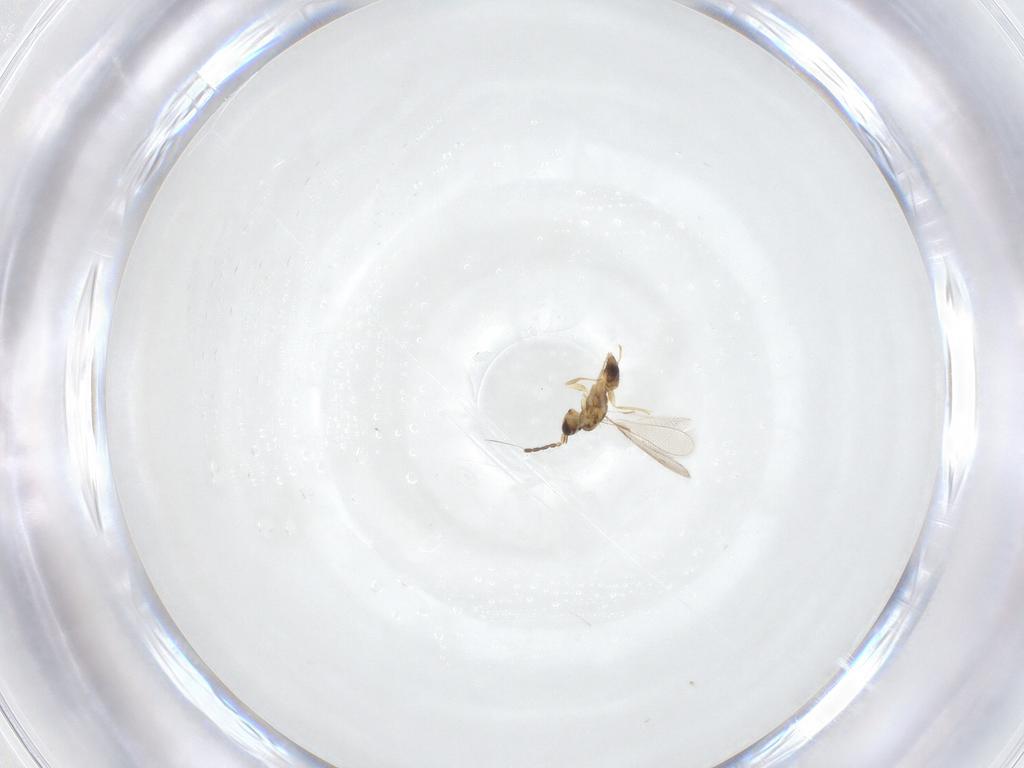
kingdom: Animalia
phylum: Arthropoda
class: Insecta
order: Hymenoptera
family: Mymaridae
